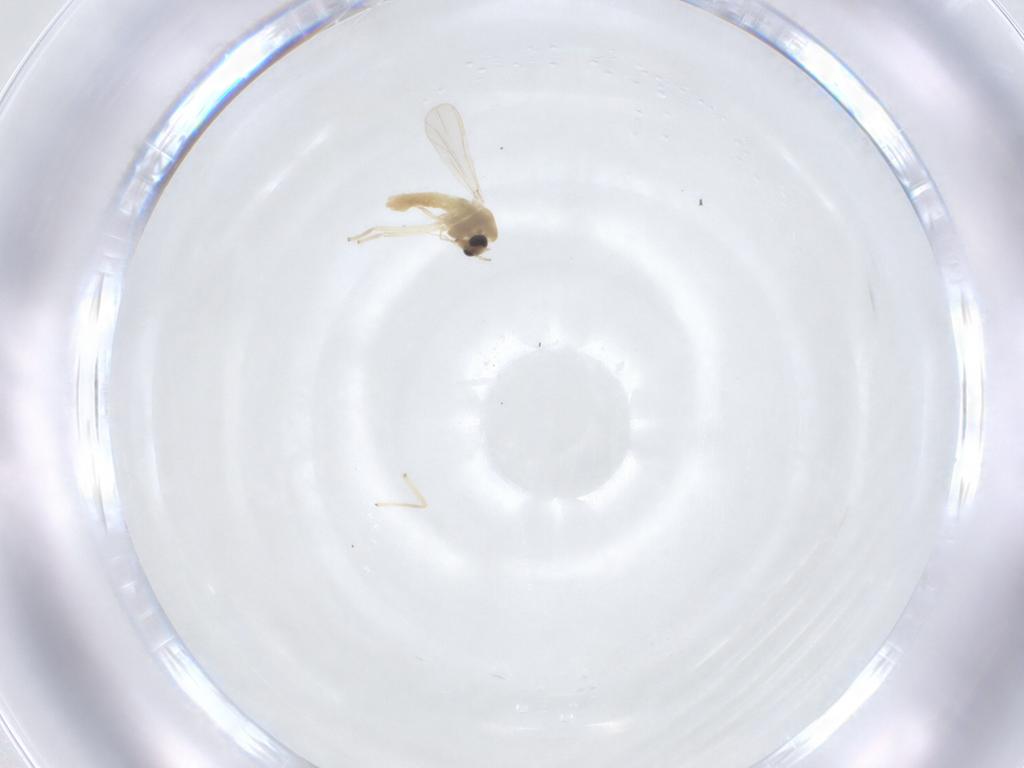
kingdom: Animalia
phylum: Arthropoda
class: Insecta
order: Diptera
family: Chironomidae
